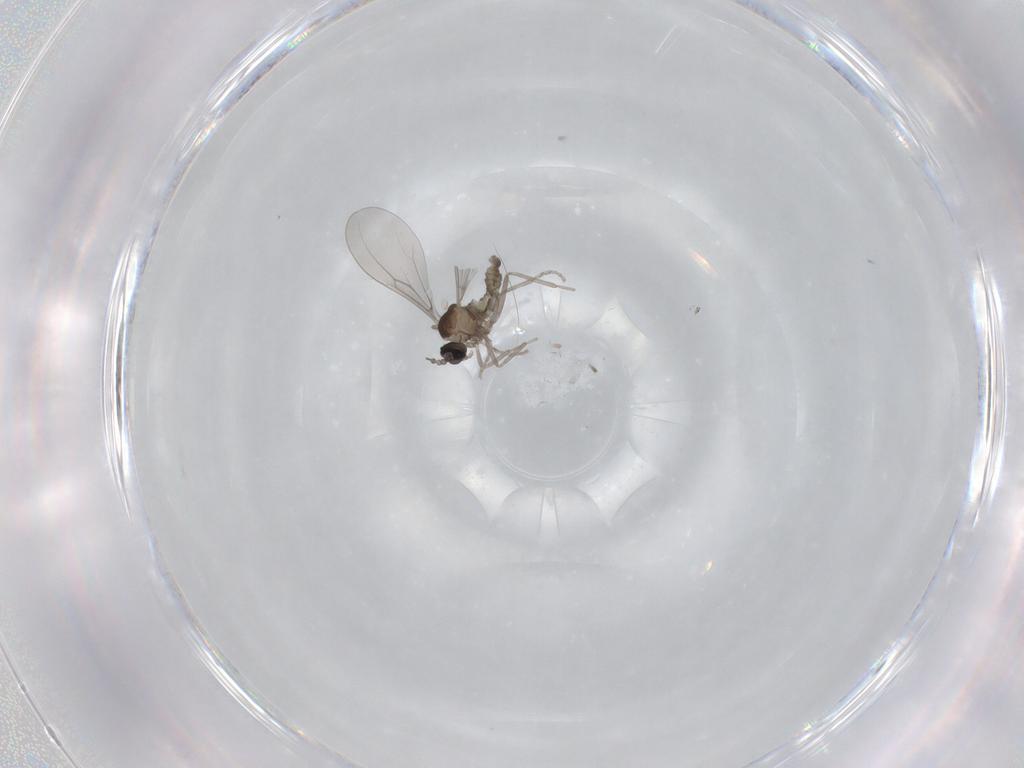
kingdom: Animalia
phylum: Arthropoda
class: Insecta
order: Diptera
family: Cecidomyiidae
